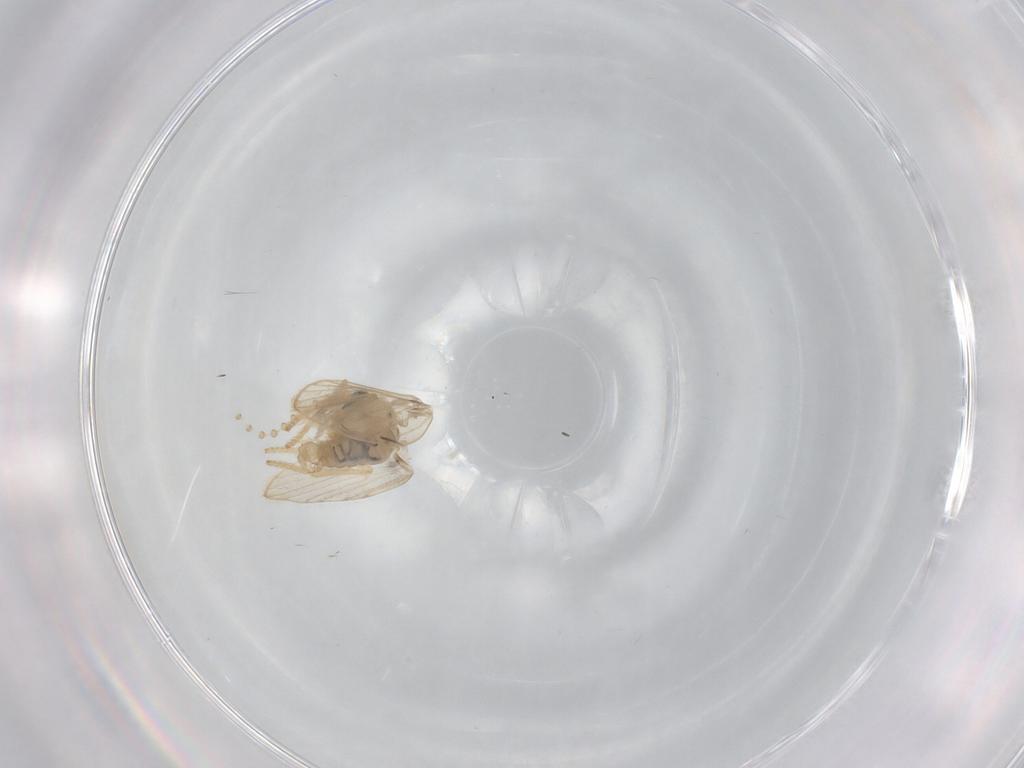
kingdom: Animalia
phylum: Arthropoda
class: Insecta
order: Diptera
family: Psychodidae
